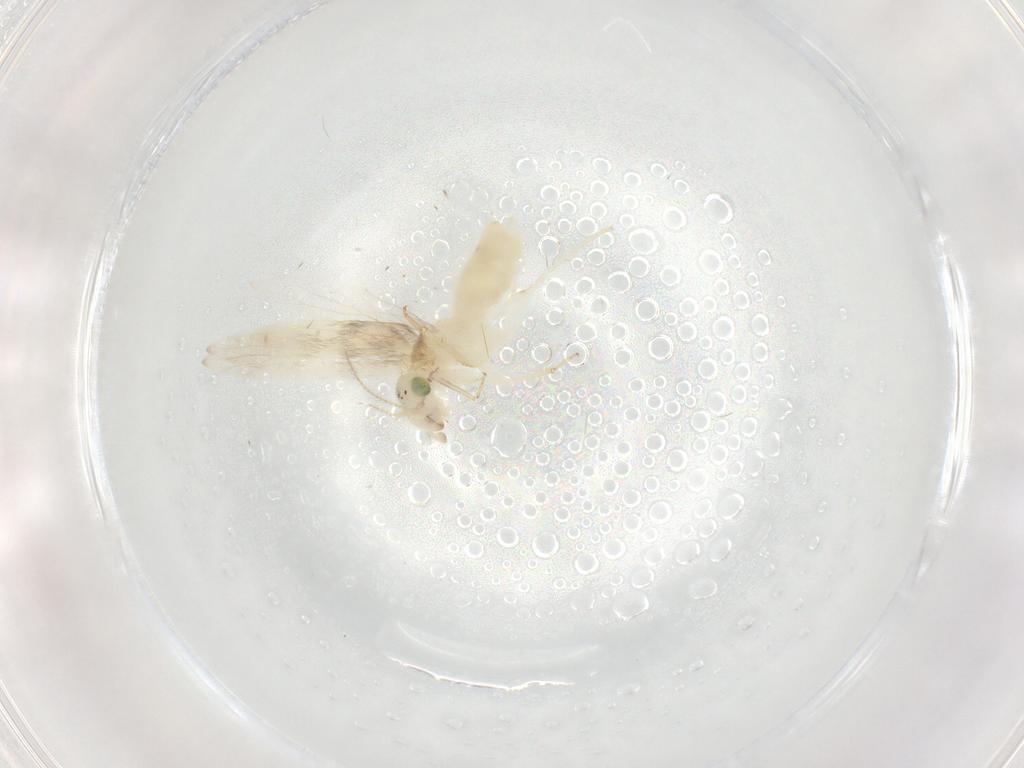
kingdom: Animalia
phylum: Arthropoda
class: Insecta
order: Psocodea
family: Lepidopsocidae
